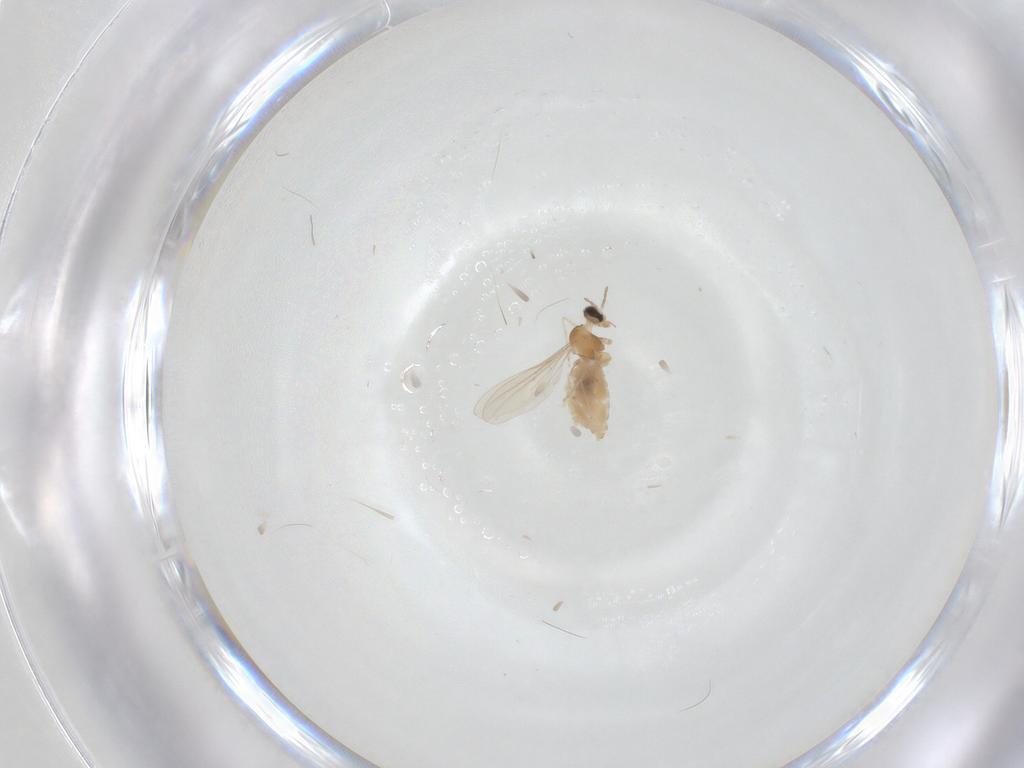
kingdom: Animalia
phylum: Arthropoda
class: Insecta
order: Diptera
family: Cecidomyiidae
